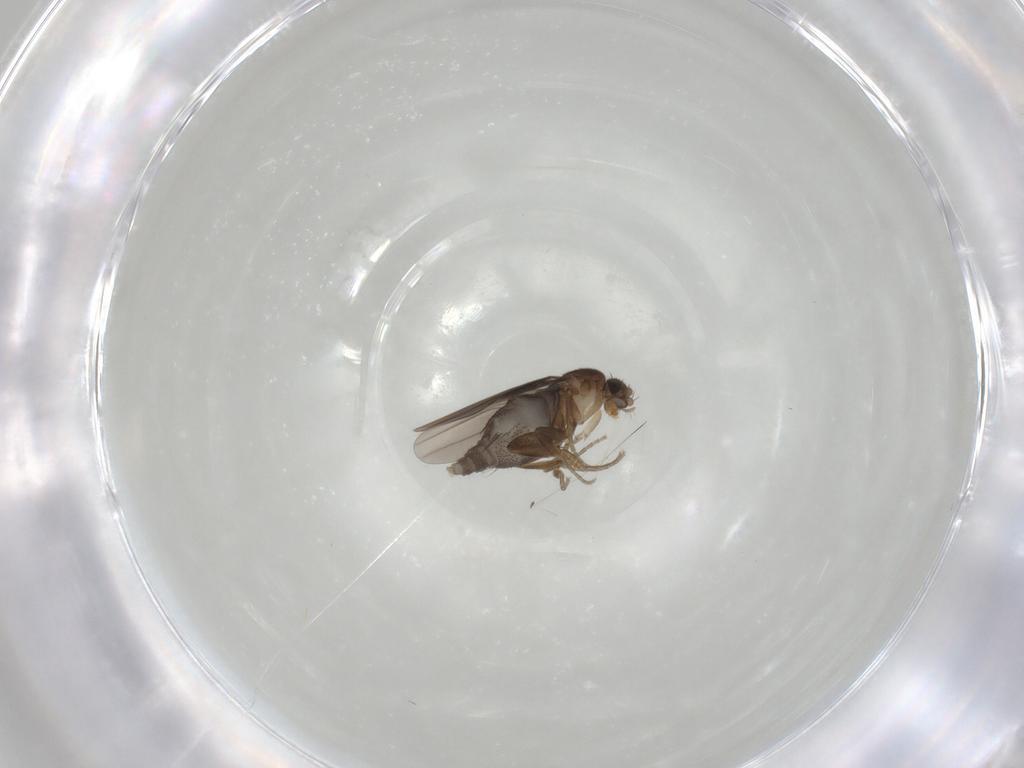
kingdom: Animalia
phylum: Arthropoda
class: Insecta
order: Diptera
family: Phoridae
